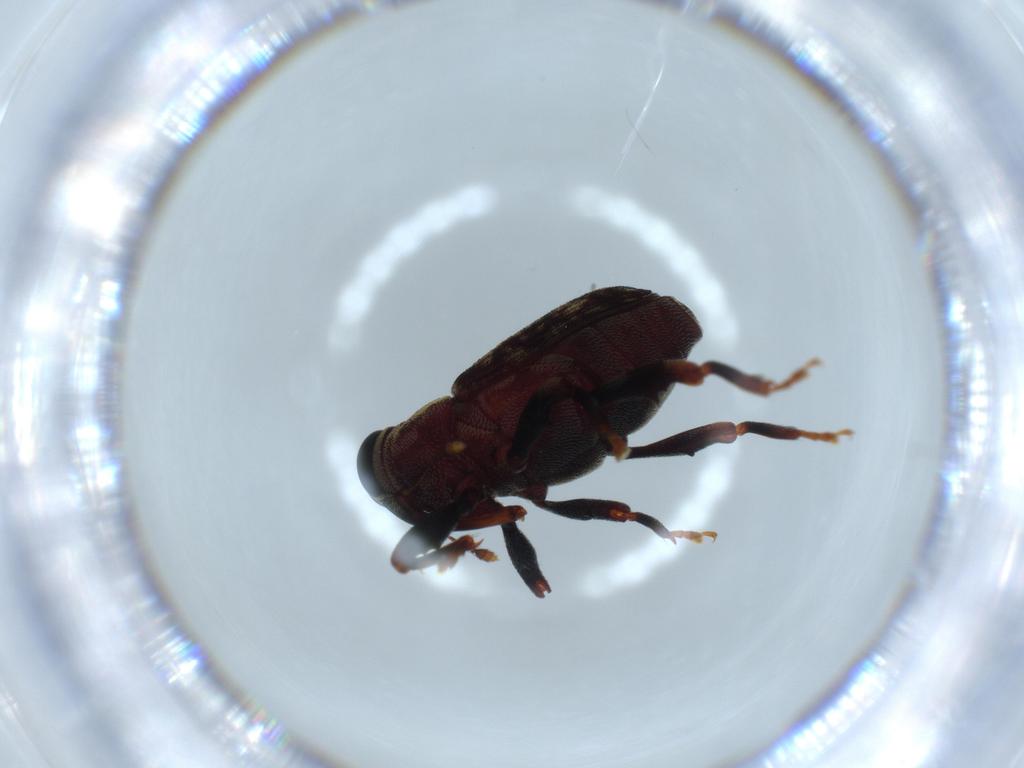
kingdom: Animalia
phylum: Arthropoda
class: Insecta
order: Coleoptera
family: Curculionidae
